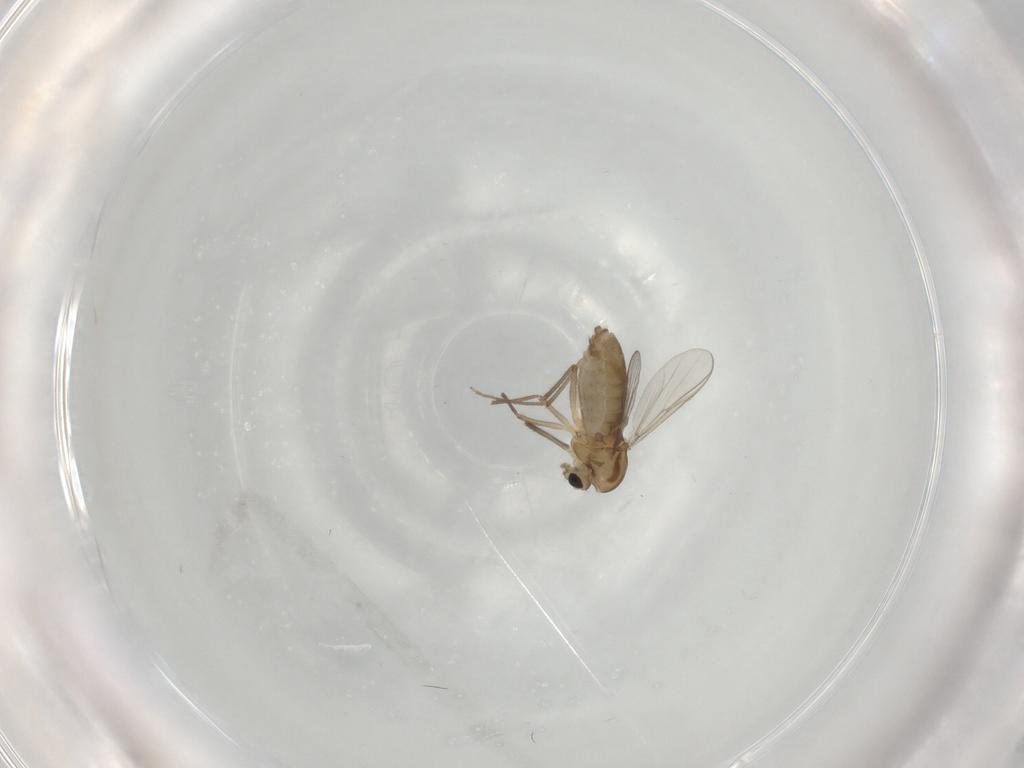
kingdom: Animalia
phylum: Arthropoda
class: Insecta
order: Diptera
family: Chironomidae
